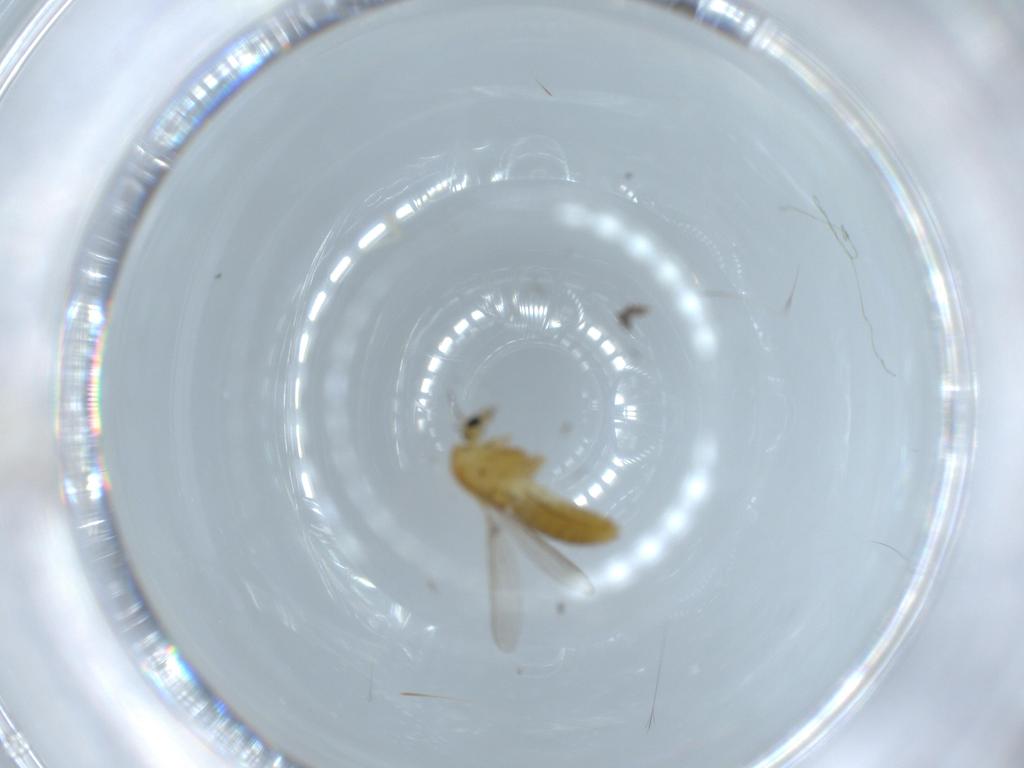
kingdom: Animalia
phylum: Arthropoda
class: Insecta
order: Diptera
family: Chironomidae
